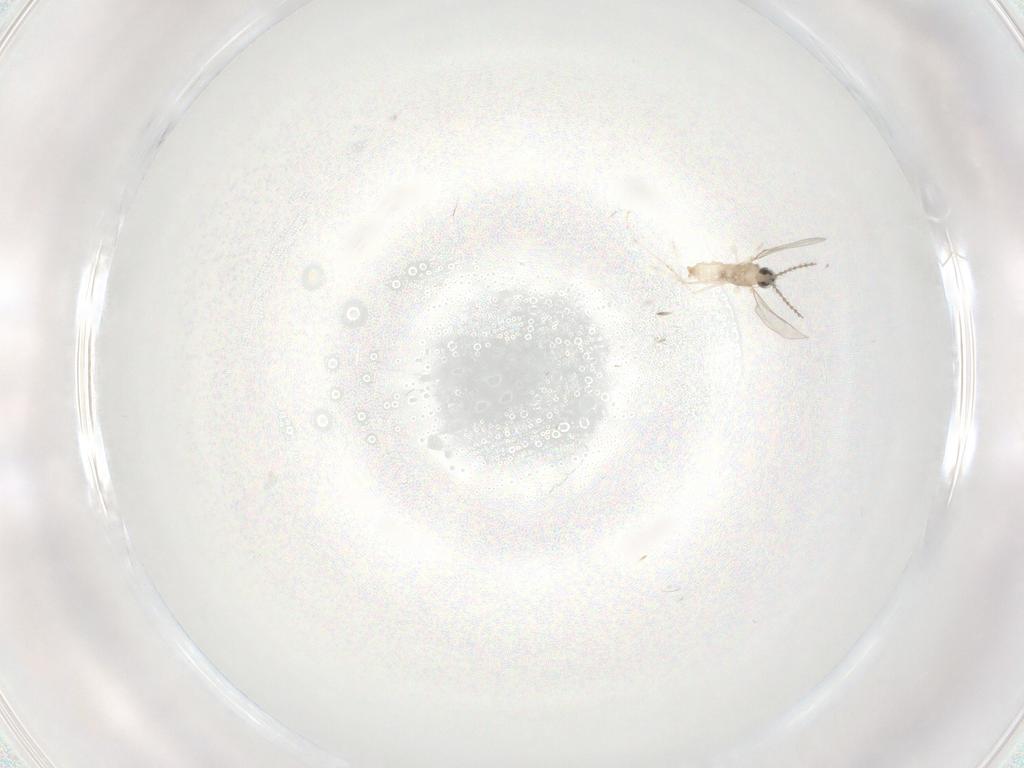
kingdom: Animalia
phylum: Arthropoda
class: Insecta
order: Diptera
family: Cecidomyiidae
